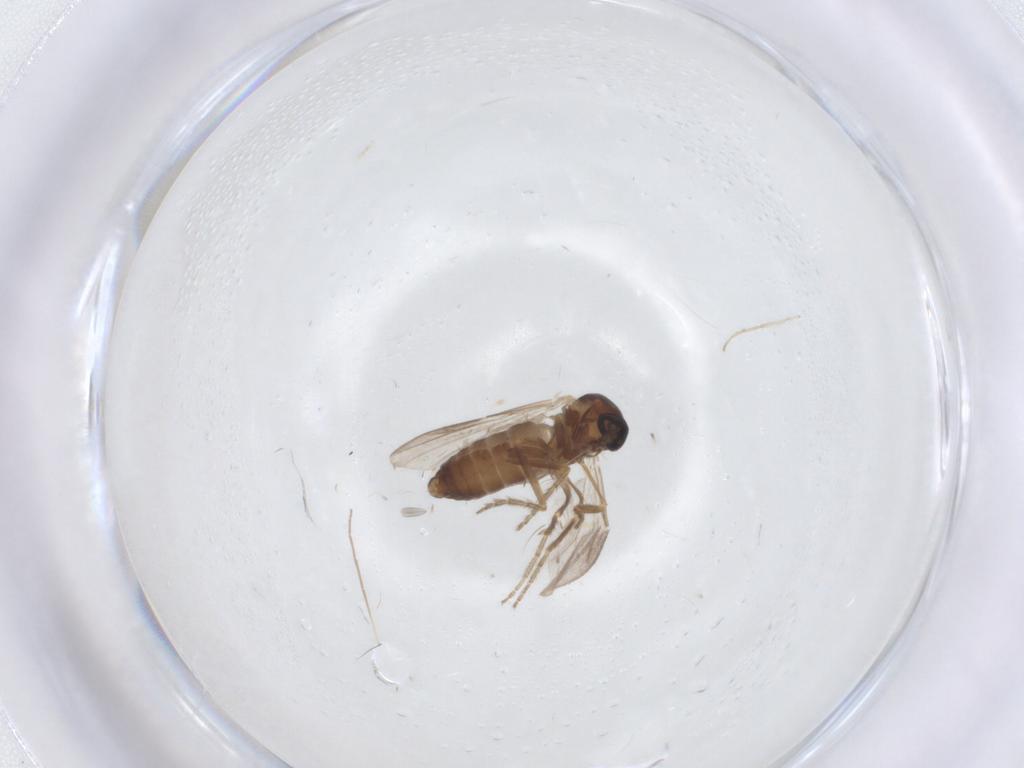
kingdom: Animalia
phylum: Arthropoda
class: Insecta
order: Diptera
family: Ceratopogonidae
